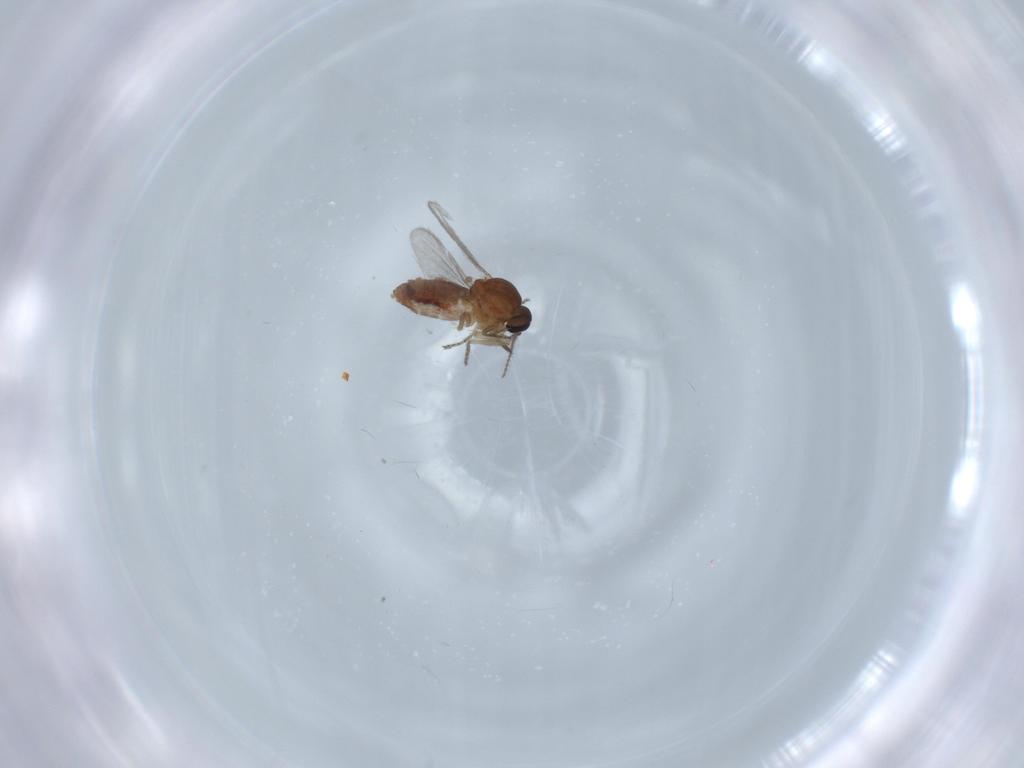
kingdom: Animalia
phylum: Arthropoda
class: Insecta
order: Diptera
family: Ceratopogonidae
